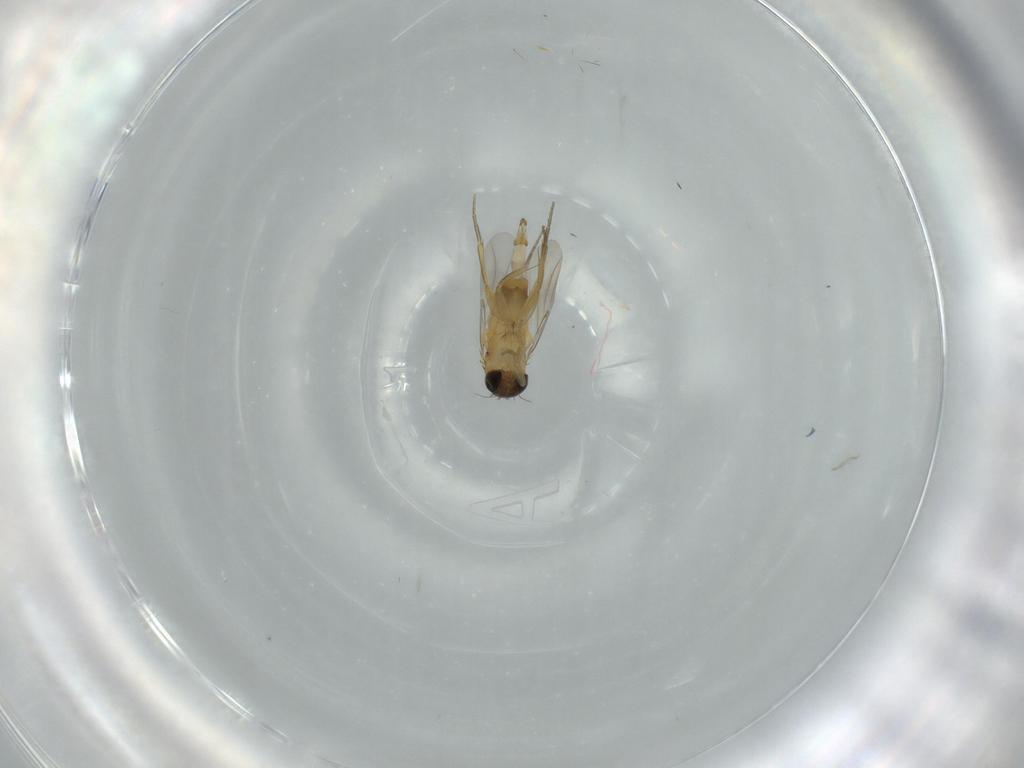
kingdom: Animalia
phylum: Arthropoda
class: Insecta
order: Diptera
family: Phoridae
